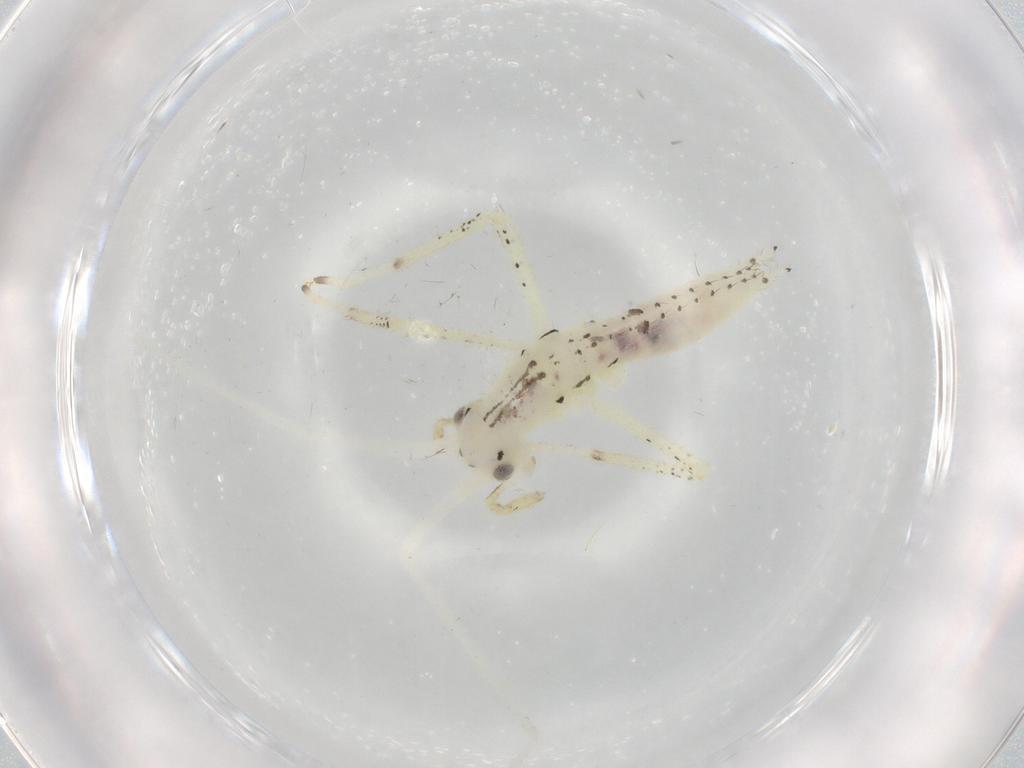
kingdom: Animalia
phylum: Arthropoda
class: Insecta
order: Orthoptera
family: Oecanthidae
